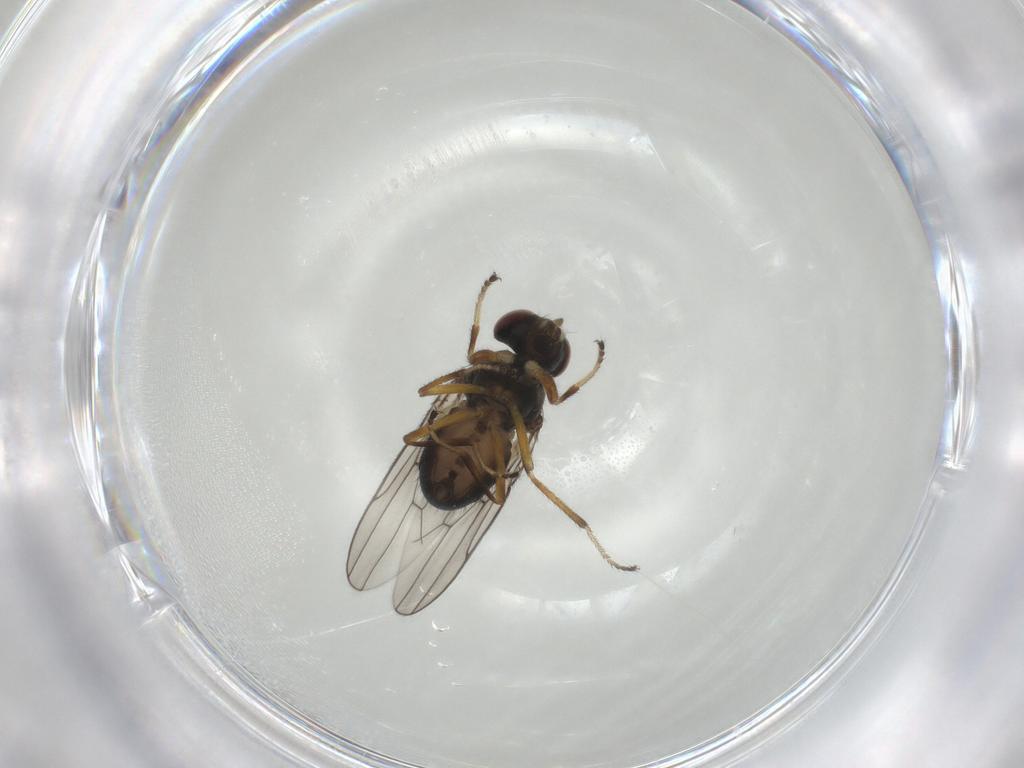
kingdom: Animalia
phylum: Arthropoda
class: Insecta
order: Diptera
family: Ephydridae
